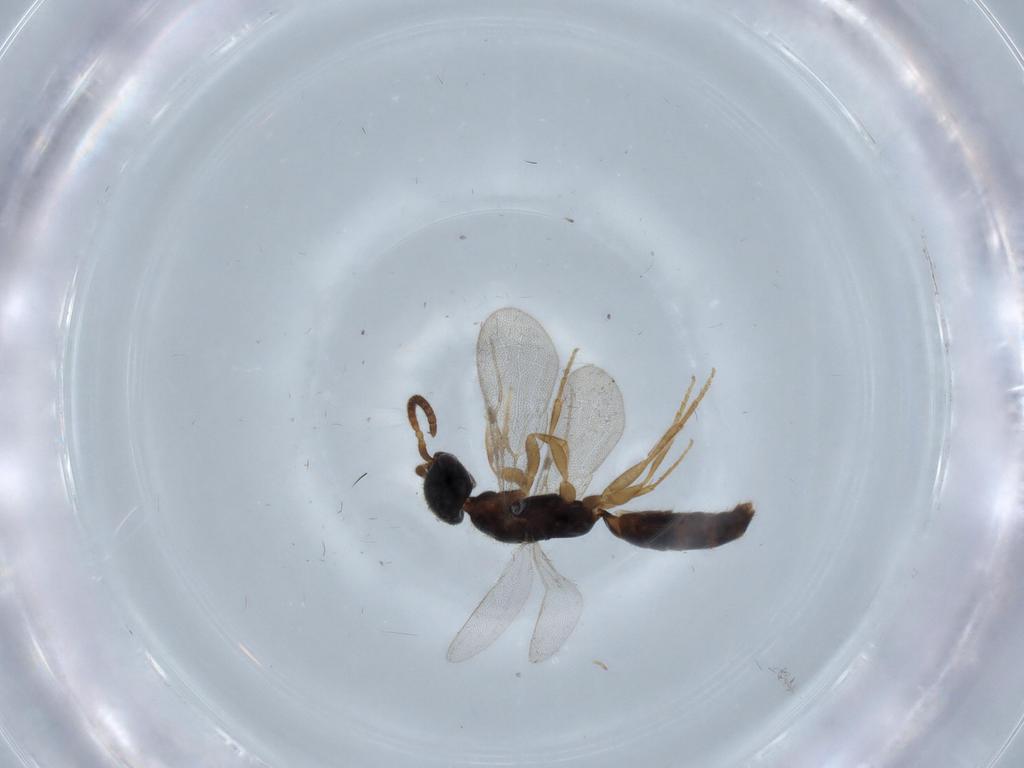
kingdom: Animalia
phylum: Arthropoda
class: Insecta
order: Hymenoptera
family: Bethylidae
